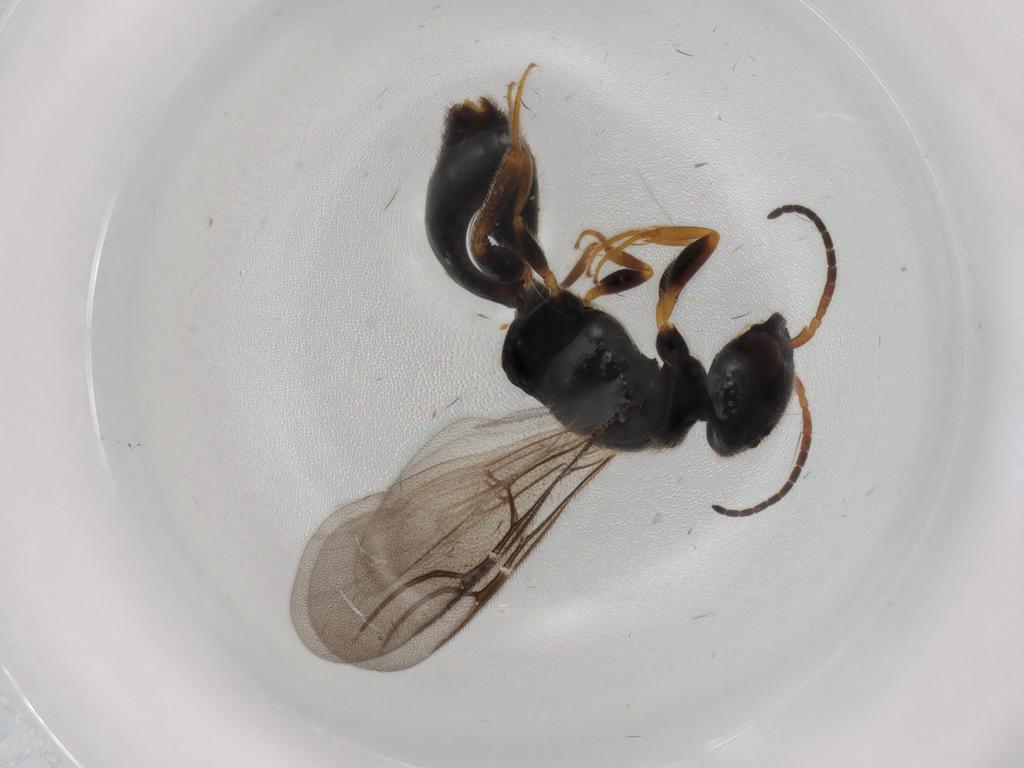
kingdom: Animalia
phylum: Arthropoda
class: Insecta
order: Hymenoptera
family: Bethylidae
